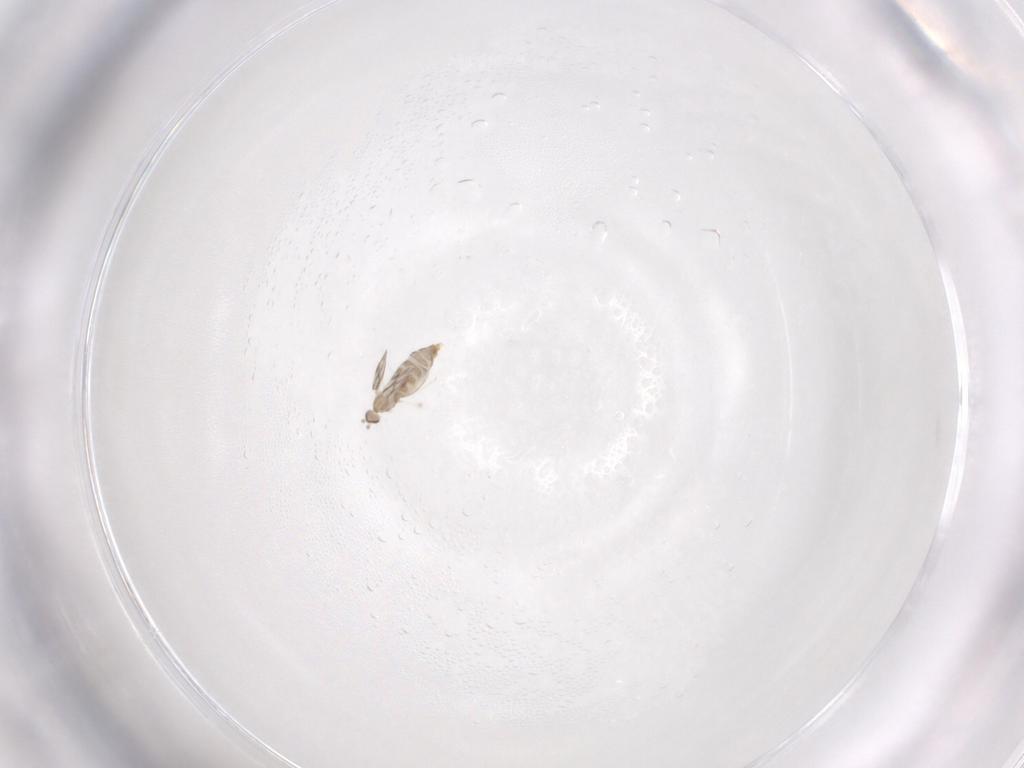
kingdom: Animalia
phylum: Arthropoda
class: Insecta
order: Diptera
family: Cecidomyiidae
